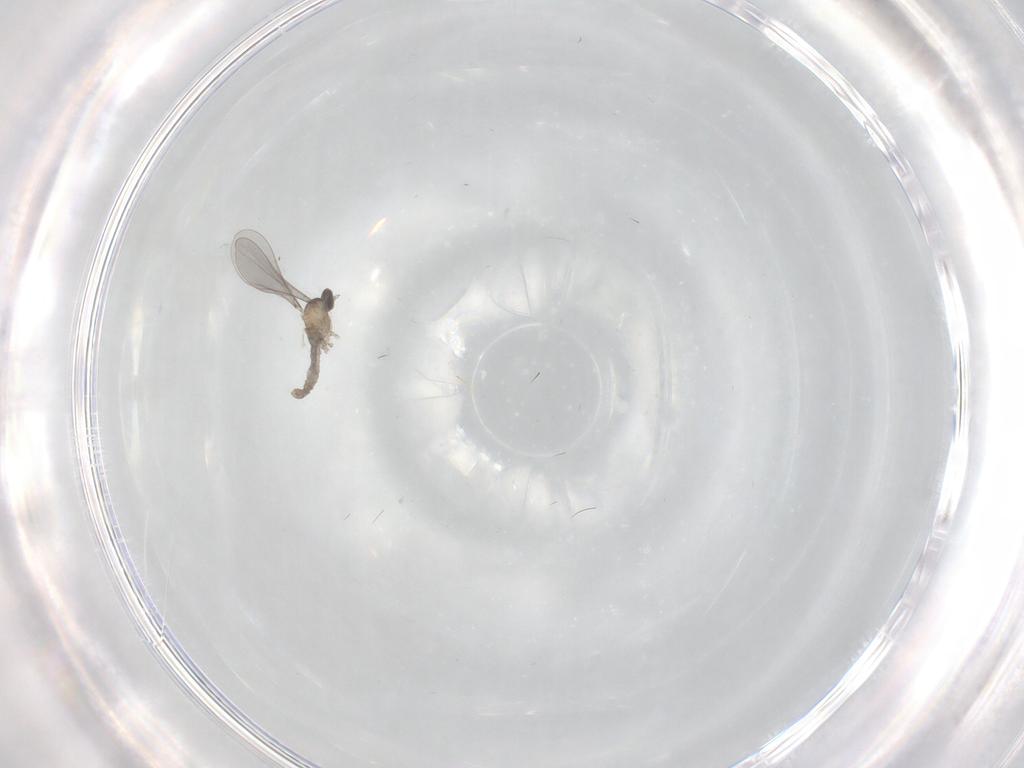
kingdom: Animalia
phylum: Arthropoda
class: Insecta
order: Diptera
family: Cecidomyiidae
